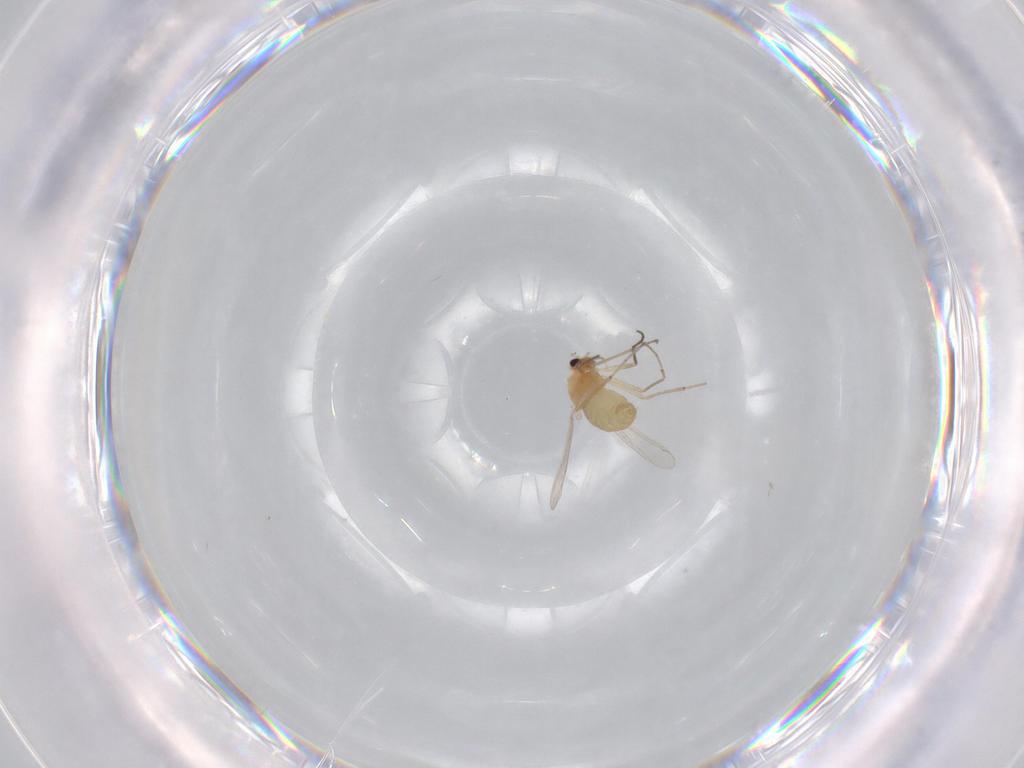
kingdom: Animalia
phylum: Arthropoda
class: Insecta
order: Diptera
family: Chironomidae
